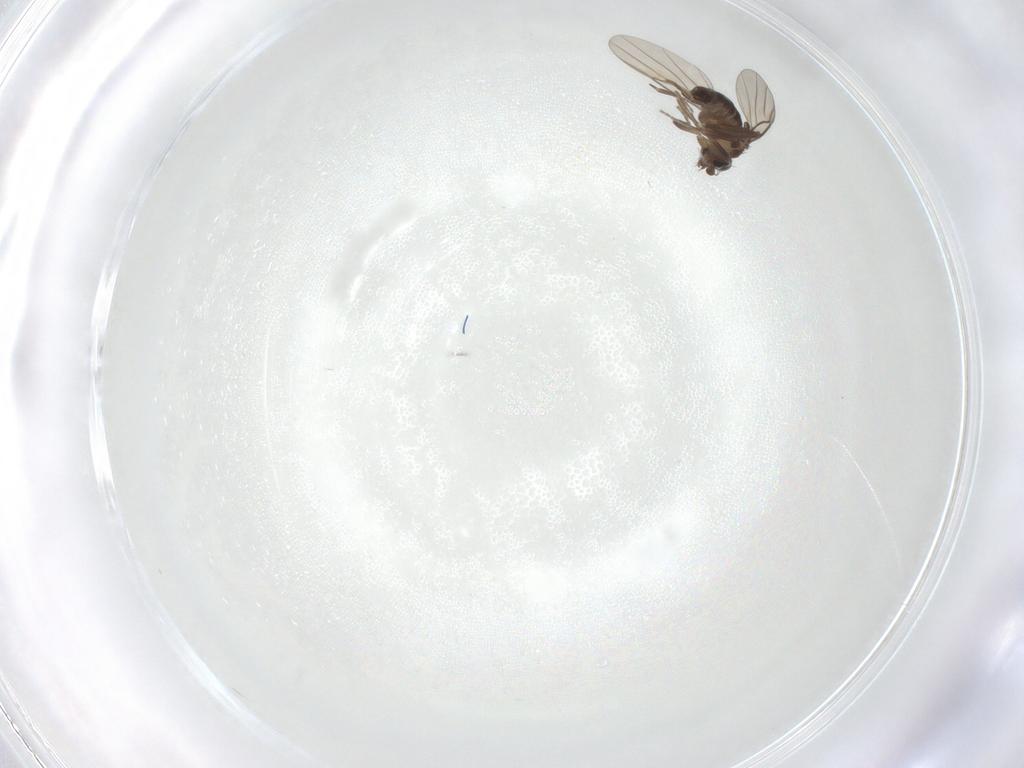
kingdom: Animalia
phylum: Arthropoda
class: Insecta
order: Diptera
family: Phoridae
